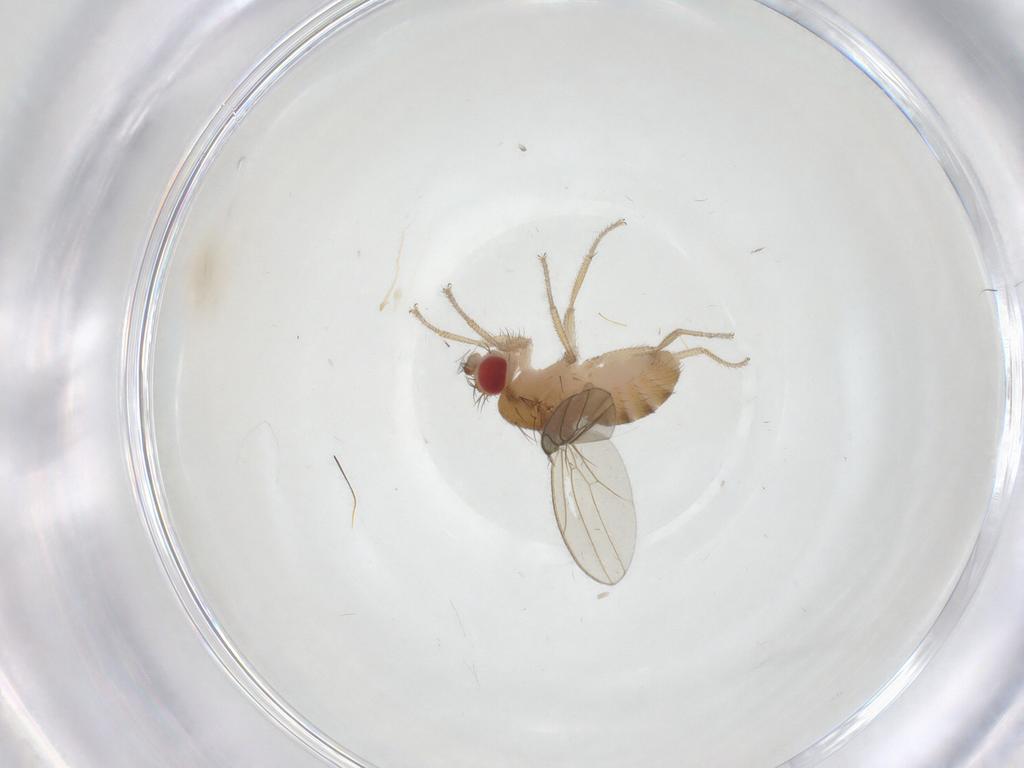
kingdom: Animalia
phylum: Arthropoda
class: Insecta
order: Diptera
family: Drosophilidae
